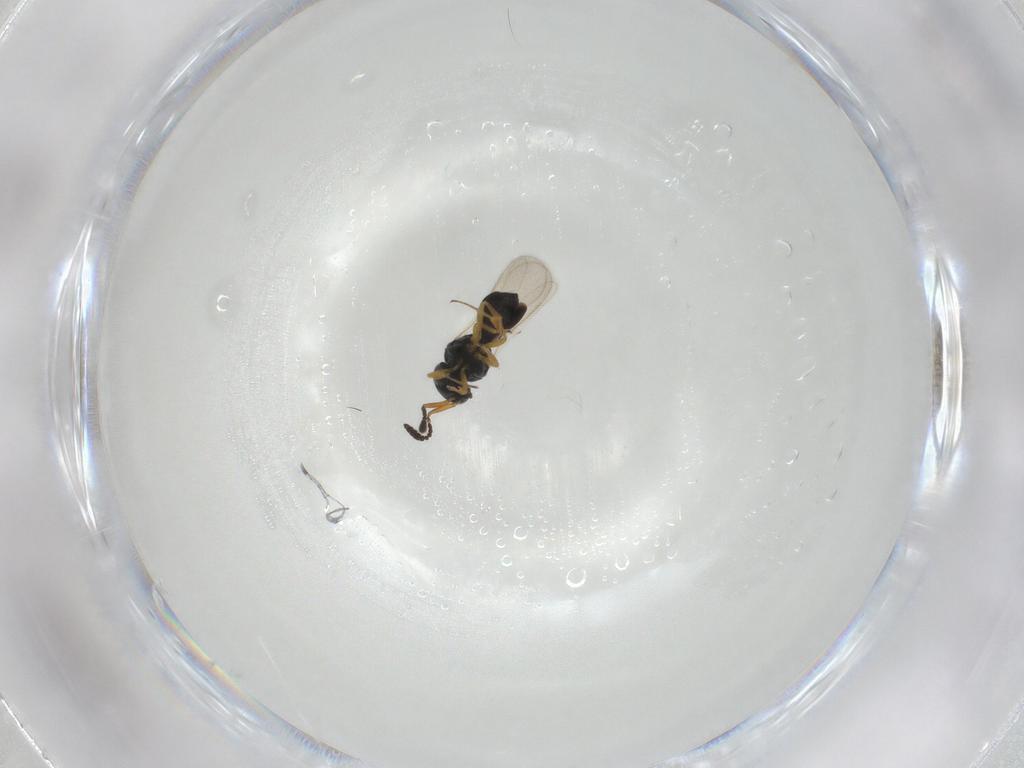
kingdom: Animalia
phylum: Arthropoda
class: Insecta
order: Hymenoptera
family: Scelionidae
